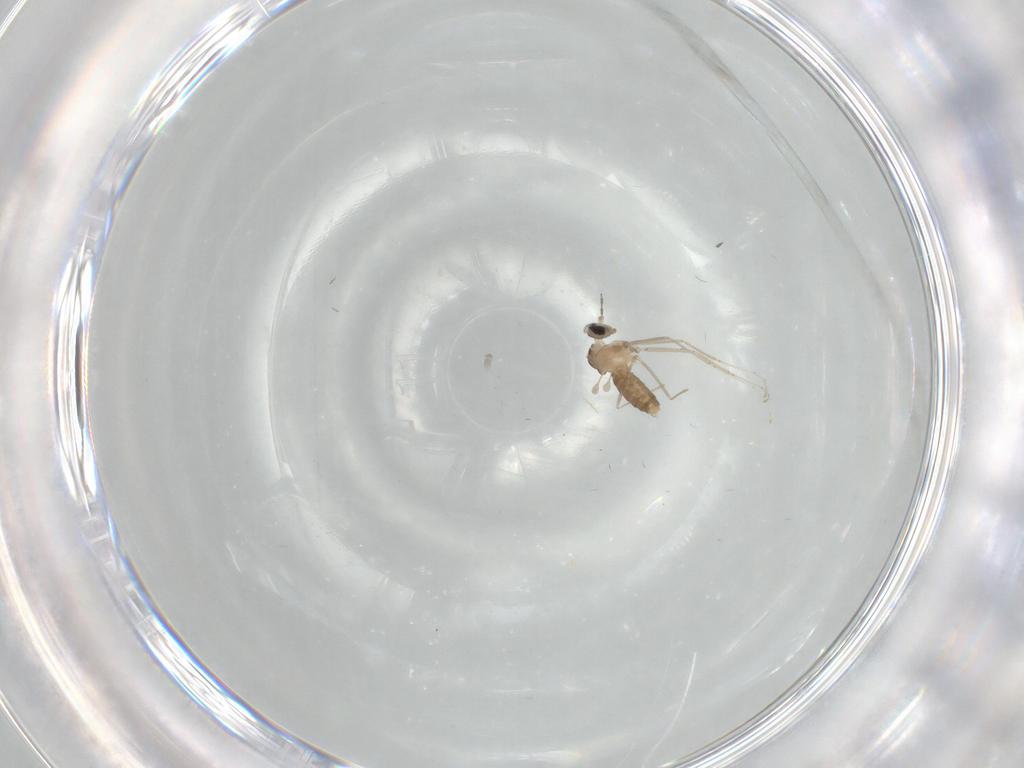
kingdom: Animalia
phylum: Arthropoda
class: Insecta
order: Diptera
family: Cecidomyiidae
